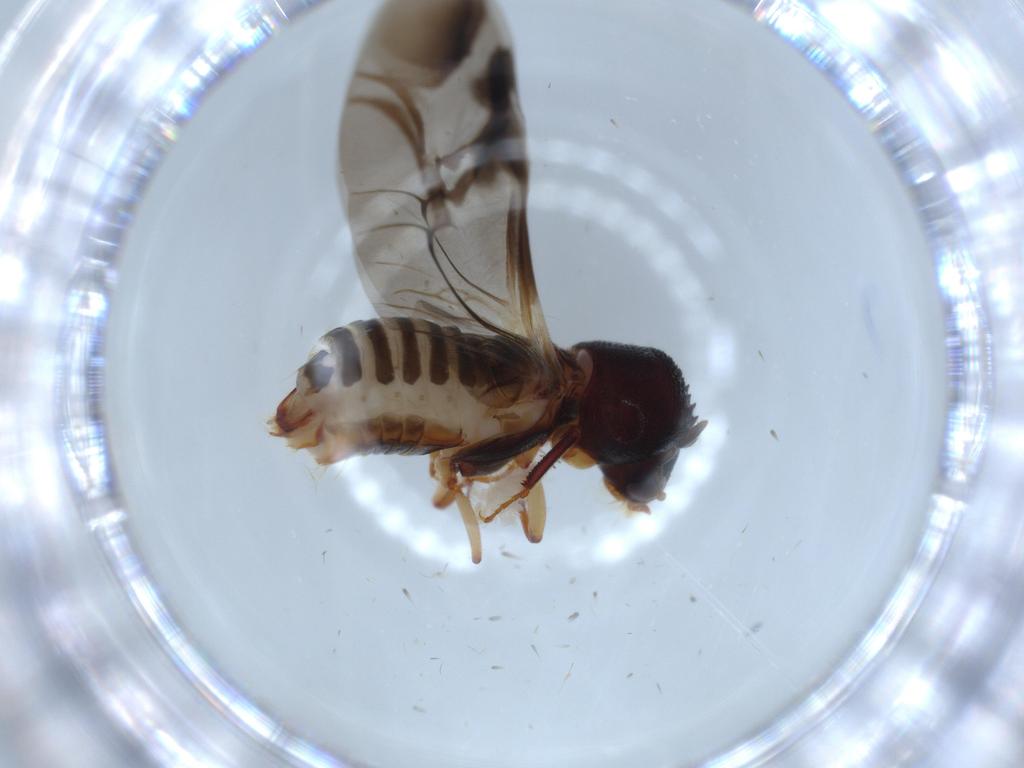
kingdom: Animalia
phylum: Arthropoda
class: Insecta
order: Coleoptera
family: Bostrichidae
